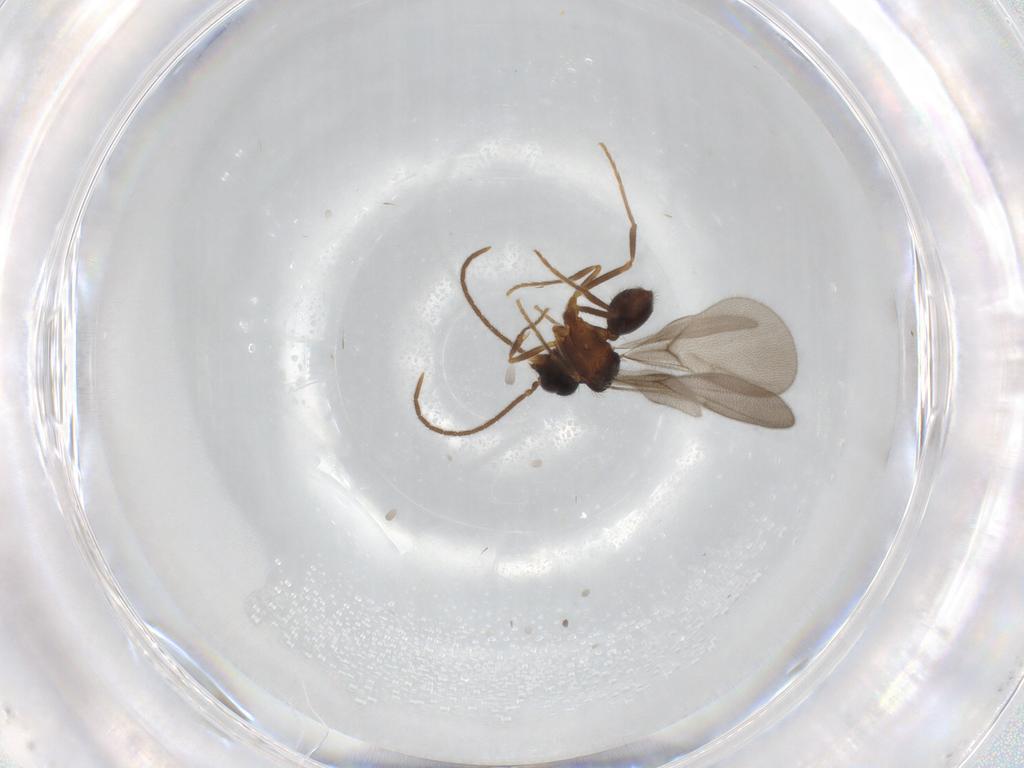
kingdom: Animalia
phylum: Arthropoda
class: Insecta
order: Hymenoptera
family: Formicidae
